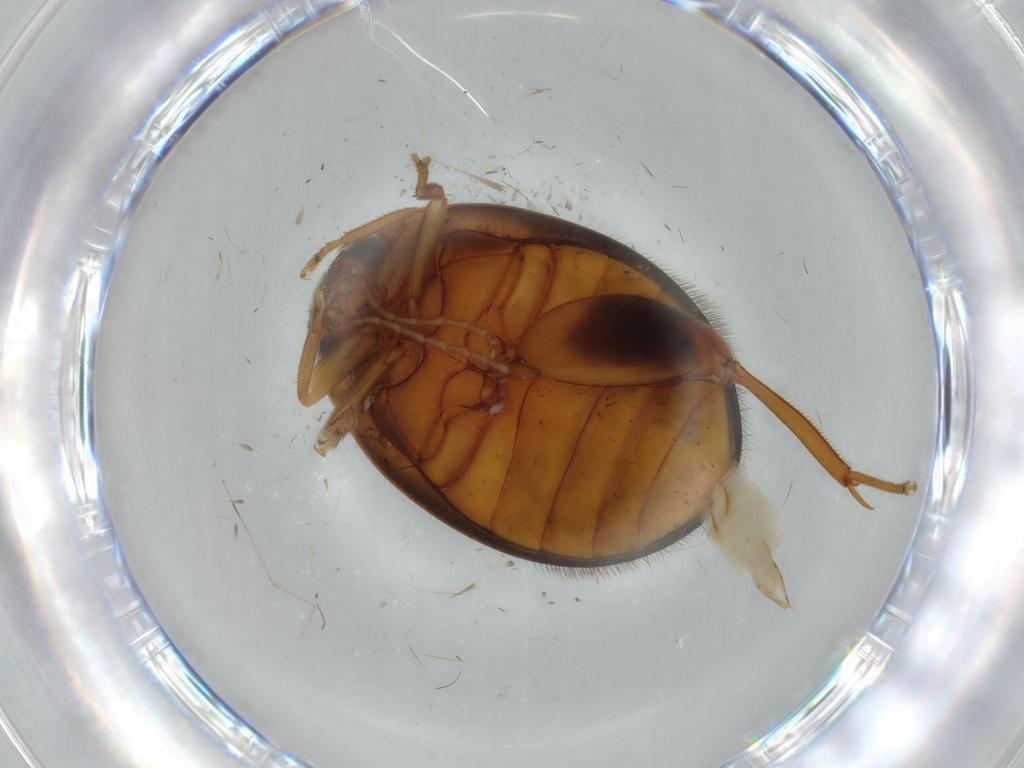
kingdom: Animalia
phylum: Arthropoda
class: Insecta
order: Coleoptera
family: Scirtidae
